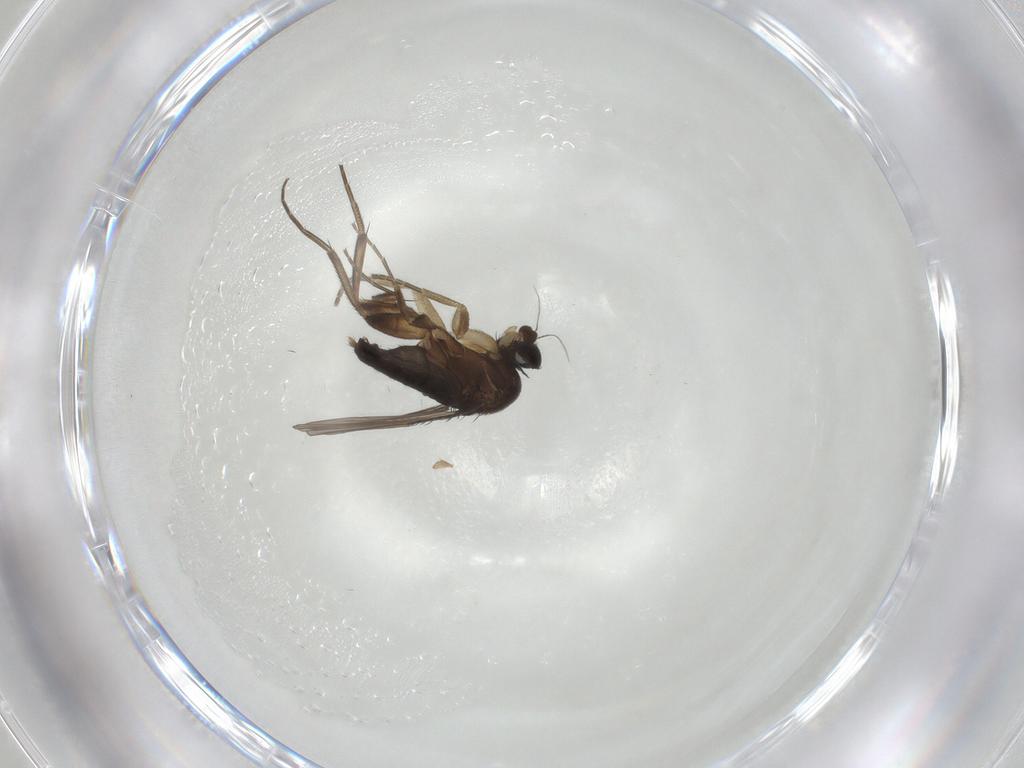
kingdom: Animalia
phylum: Arthropoda
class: Insecta
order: Diptera
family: Phoridae
